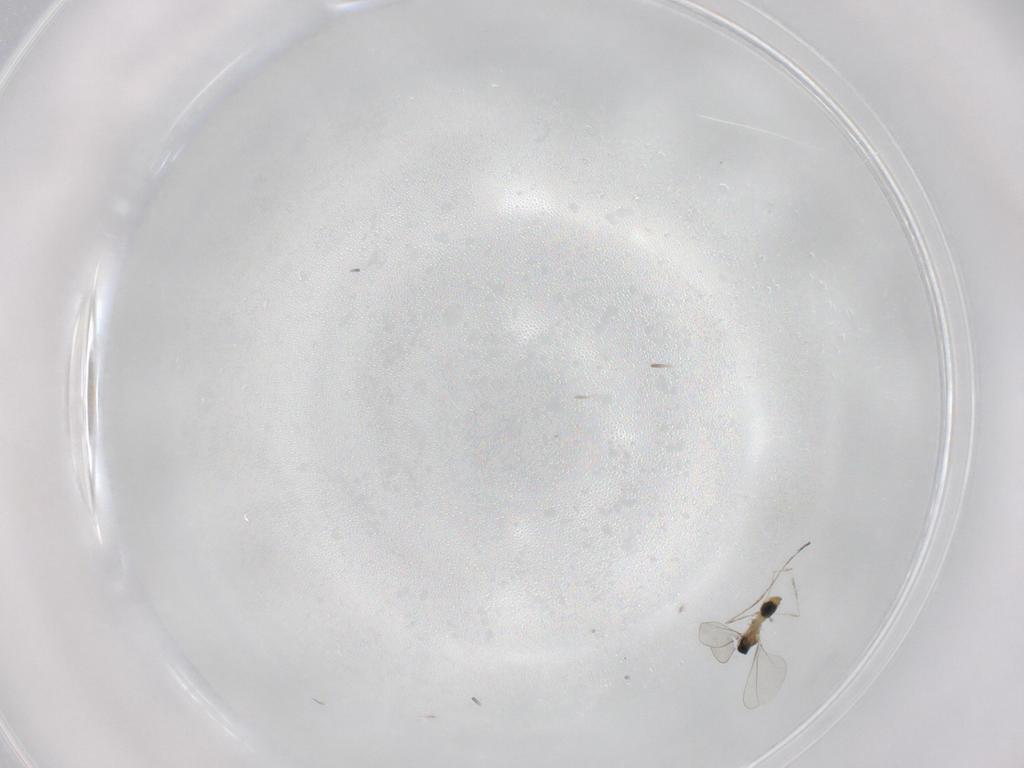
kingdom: Animalia
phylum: Arthropoda
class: Insecta
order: Diptera
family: Cecidomyiidae
